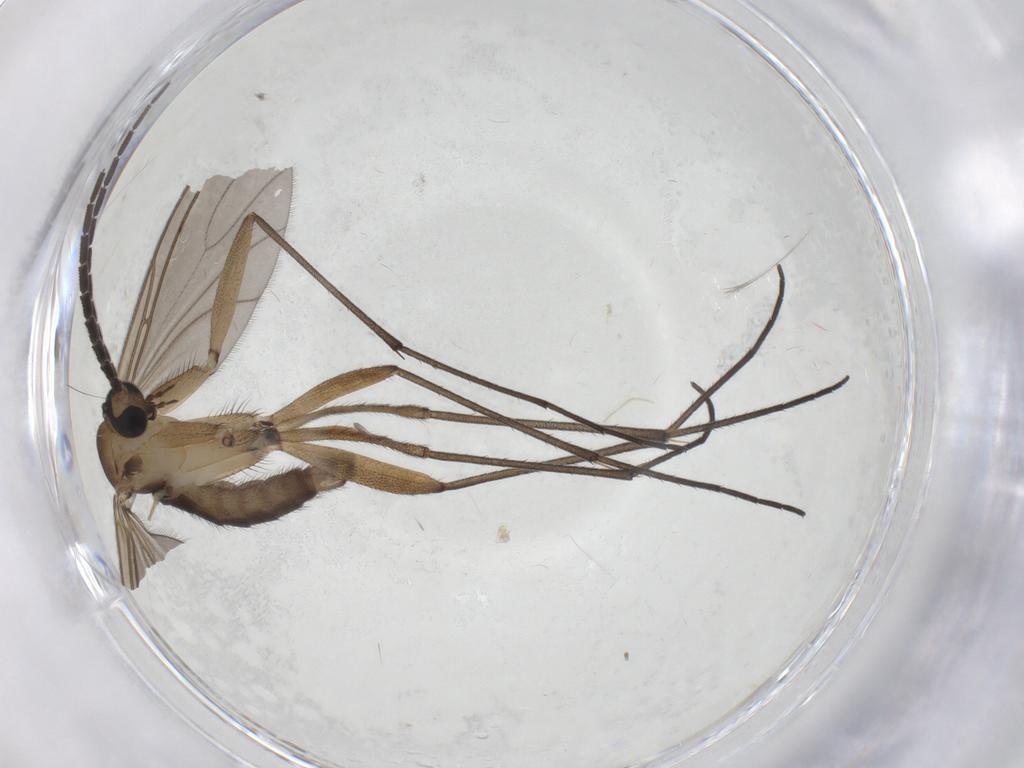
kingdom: Animalia
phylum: Arthropoda
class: Insecta
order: Diptera
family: Sciaridae
